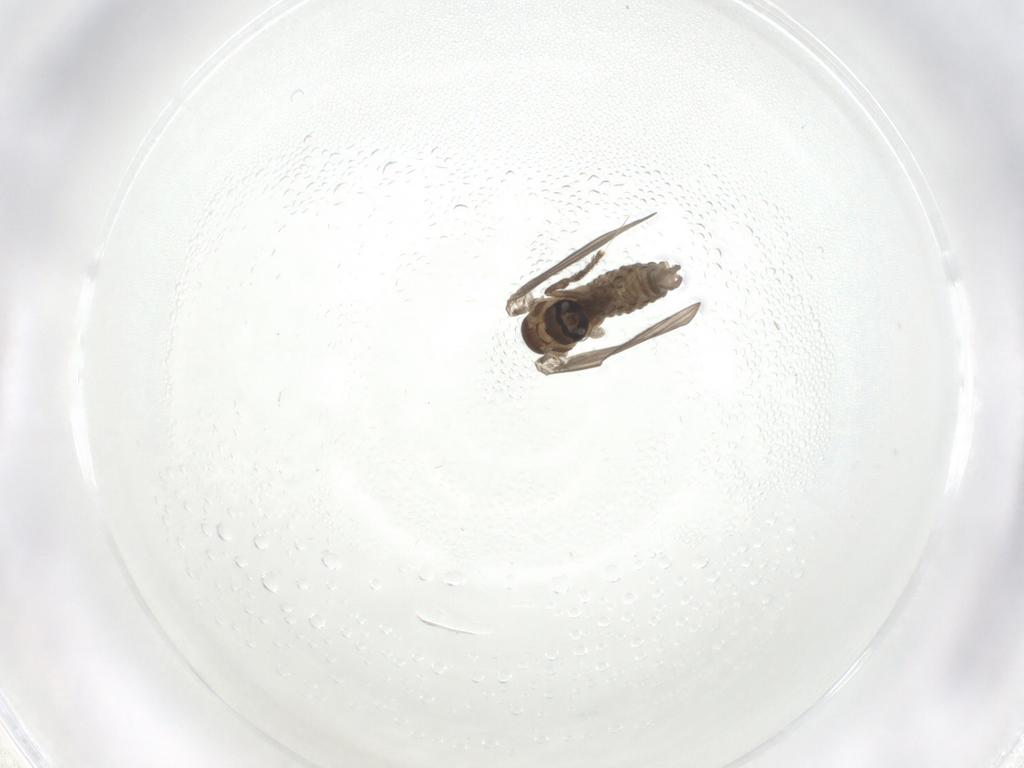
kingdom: Animalia
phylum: Arthropoda
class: Insecta
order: Diptera
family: Psychodidae
